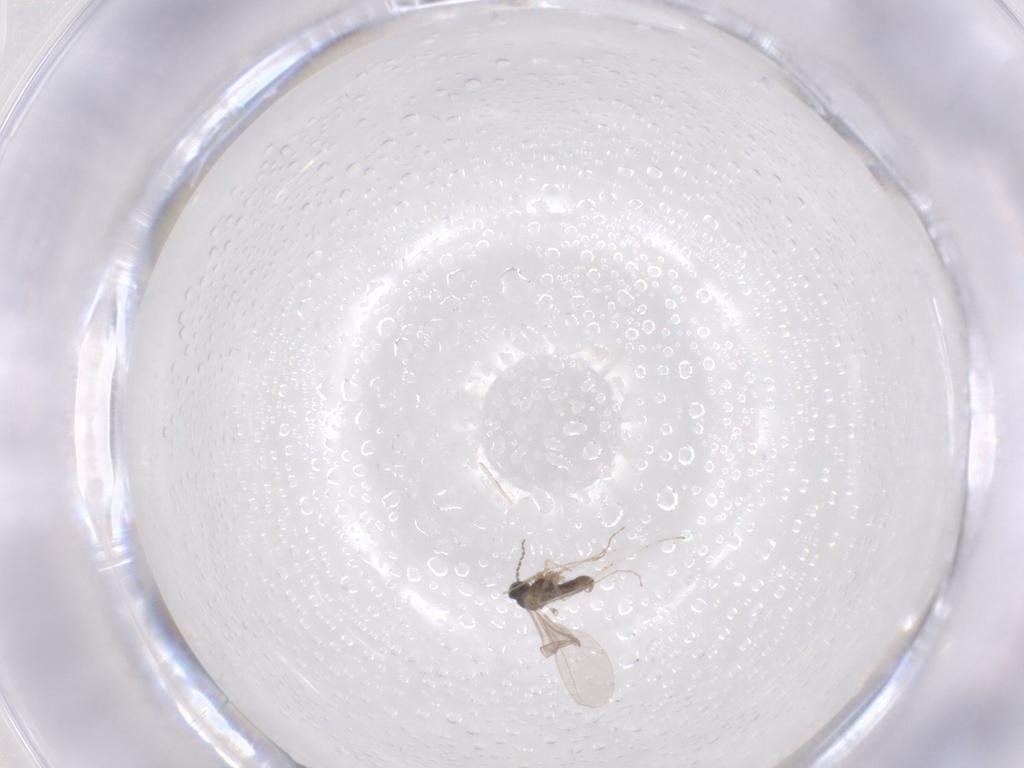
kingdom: Animalia
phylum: Arthropoda
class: Insecta
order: Diptera
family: Cecidomyiidae
